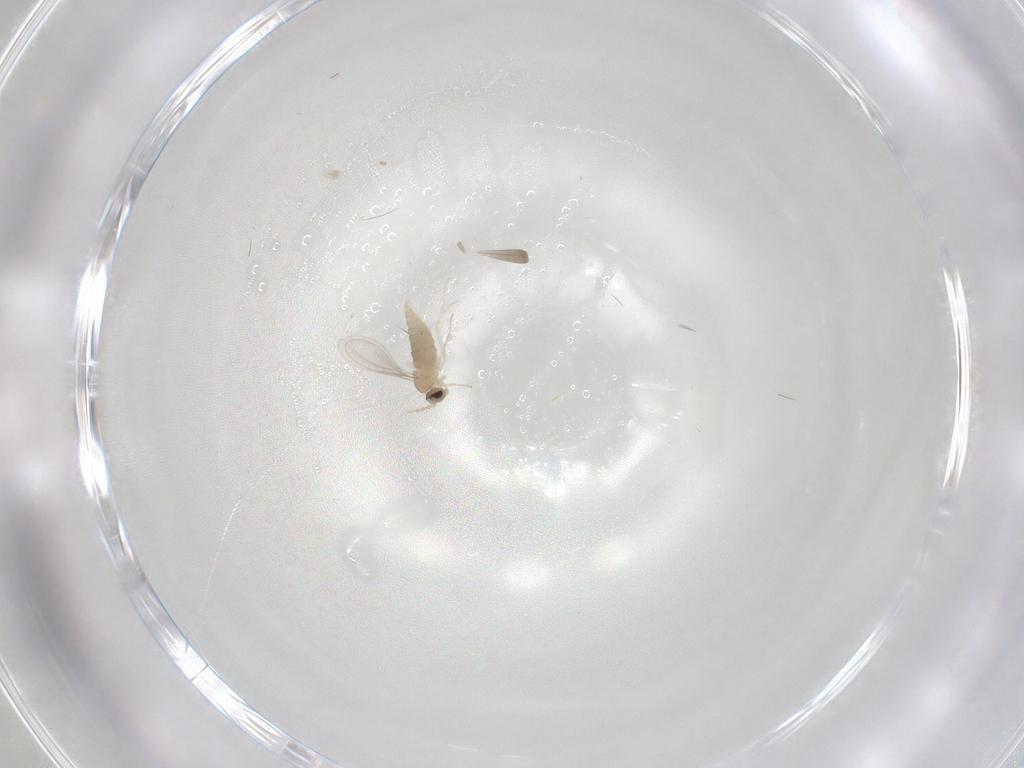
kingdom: Animalia
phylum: Arthropoda
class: Insecta
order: Diptera
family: Cecidomyiidae
